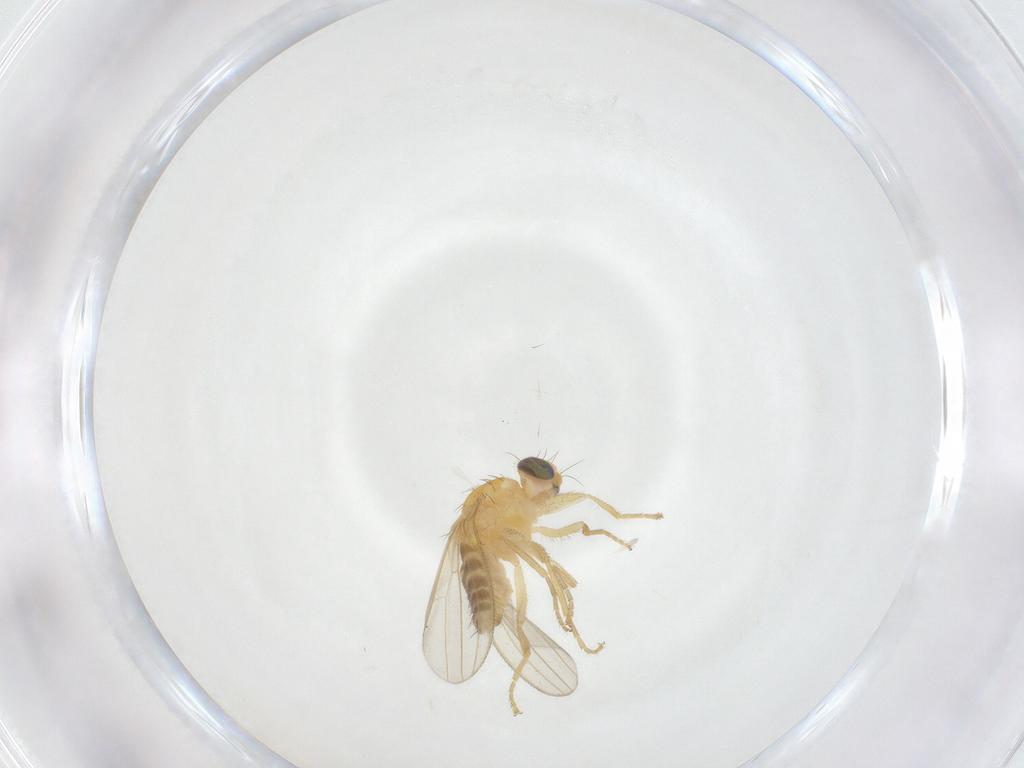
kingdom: Animalia
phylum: Arthropoda
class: Insecta
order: Diptera
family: Chyromyidae
